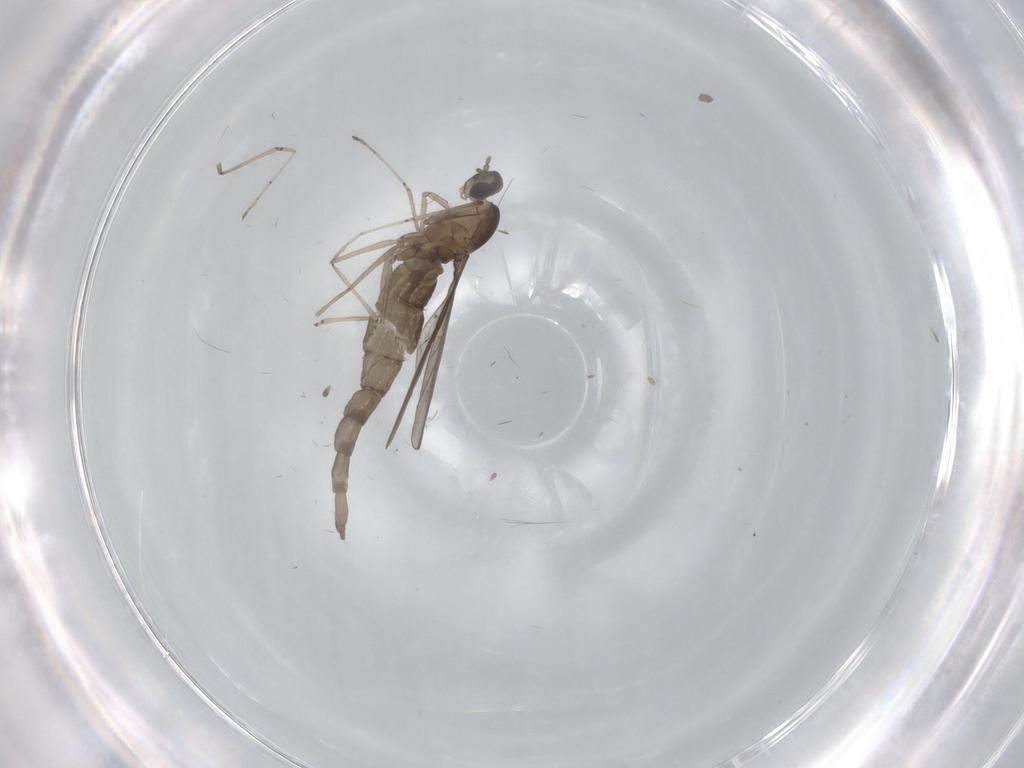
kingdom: Animalia
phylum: Arthropoda
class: Insecta
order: Diptera
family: Cecidomyiidae
